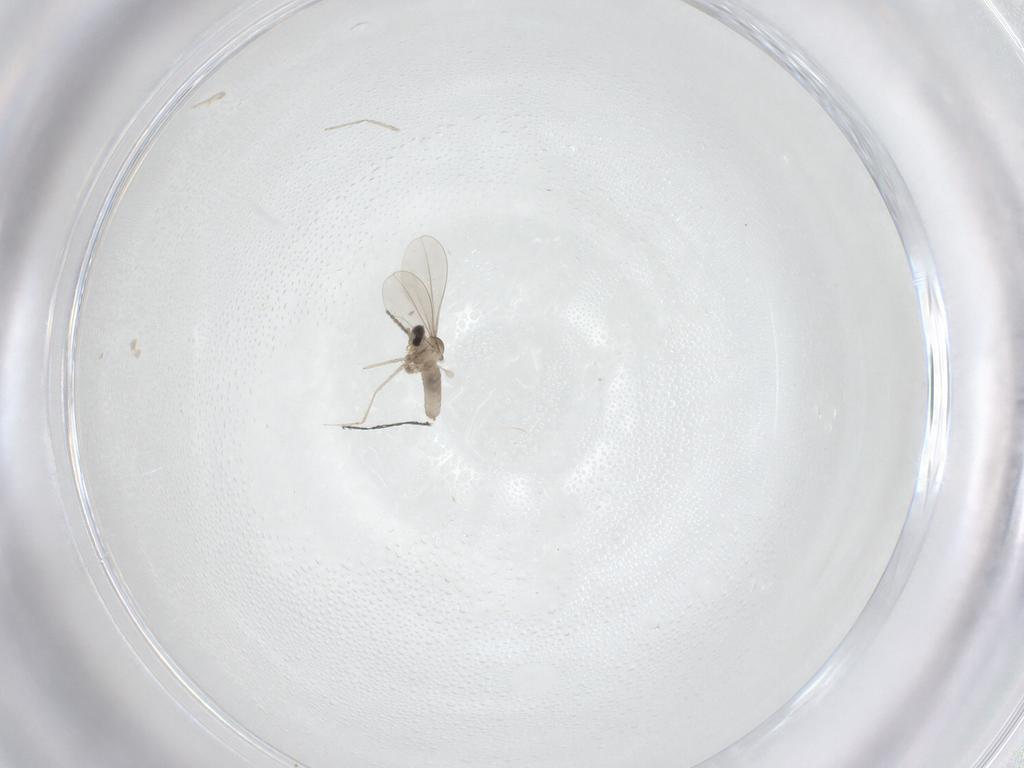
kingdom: Animalia
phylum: Arthropoda
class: Insecta
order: Diptera
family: Cecidomyiidae
